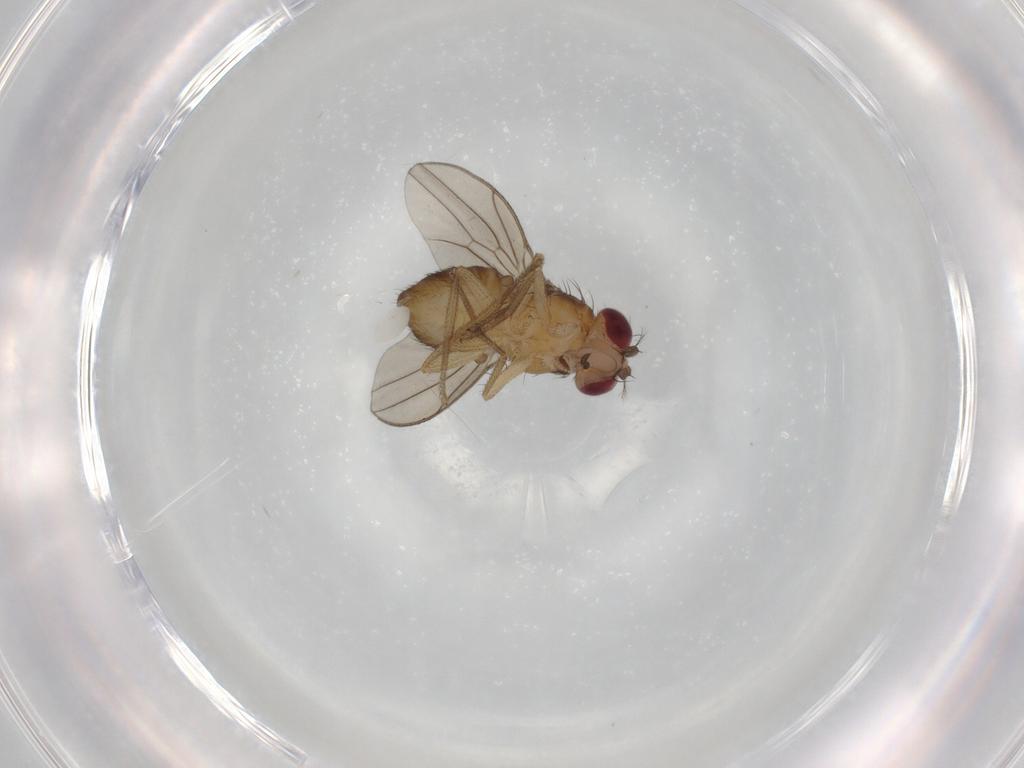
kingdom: Animalia
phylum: Arthropoda
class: Insecta
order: Diptera
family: Drosophilidae
